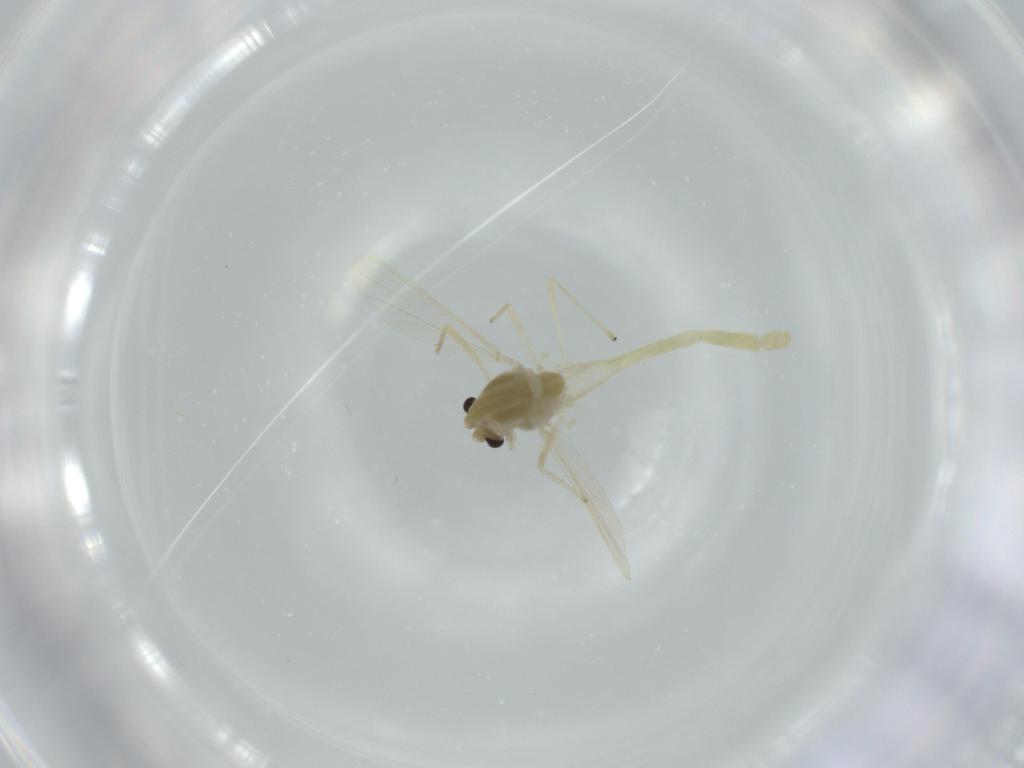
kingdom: Animalia
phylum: Arthropoda
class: Insecta
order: Diptera
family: Chironomidae
